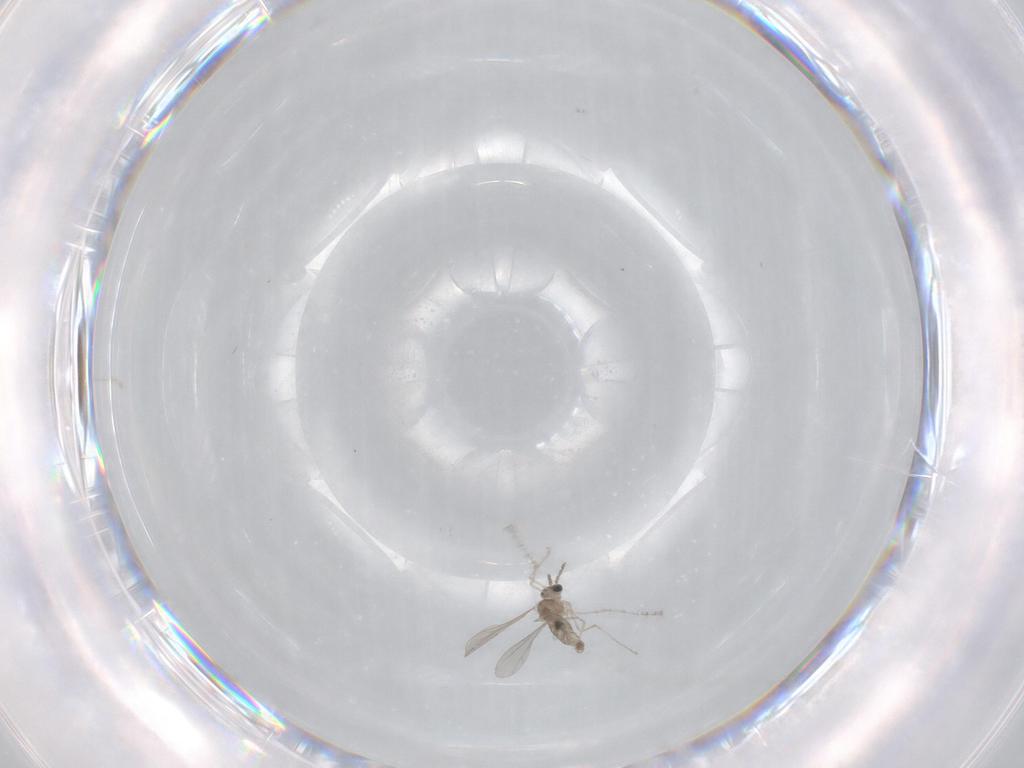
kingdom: Animalia
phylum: Arthropoda
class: Insecta
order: Diptera
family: Ceratopogonidae
